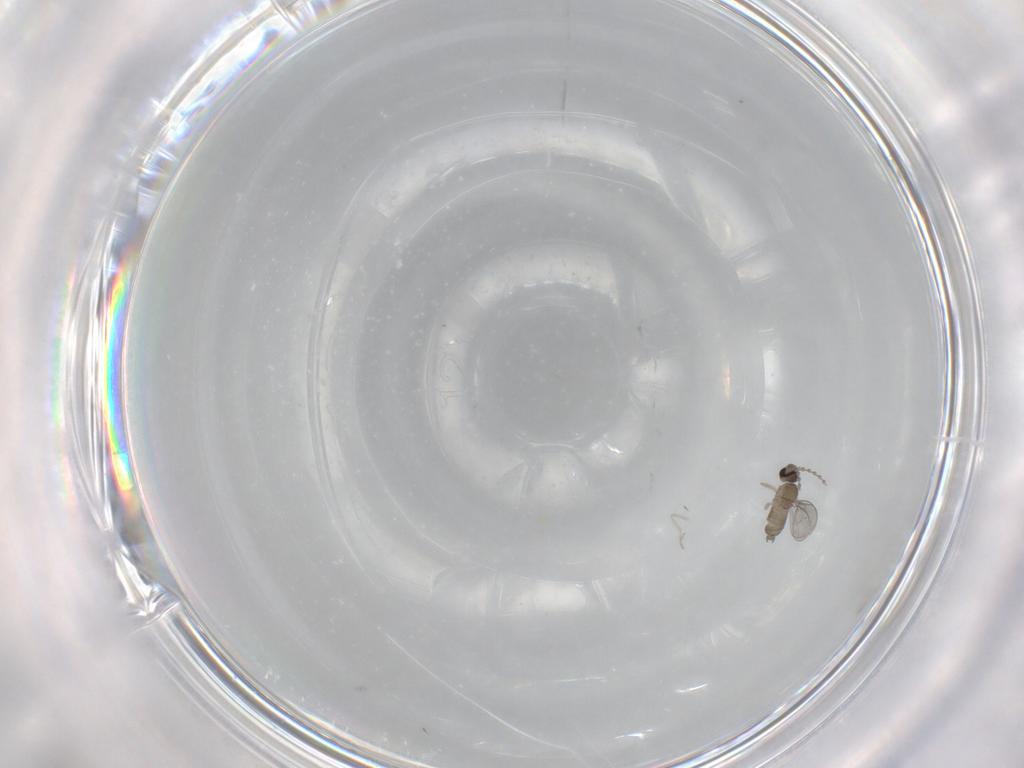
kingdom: Animalia
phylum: Arthropoda
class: Insecta
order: Diptera
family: Cecidomyiidae
